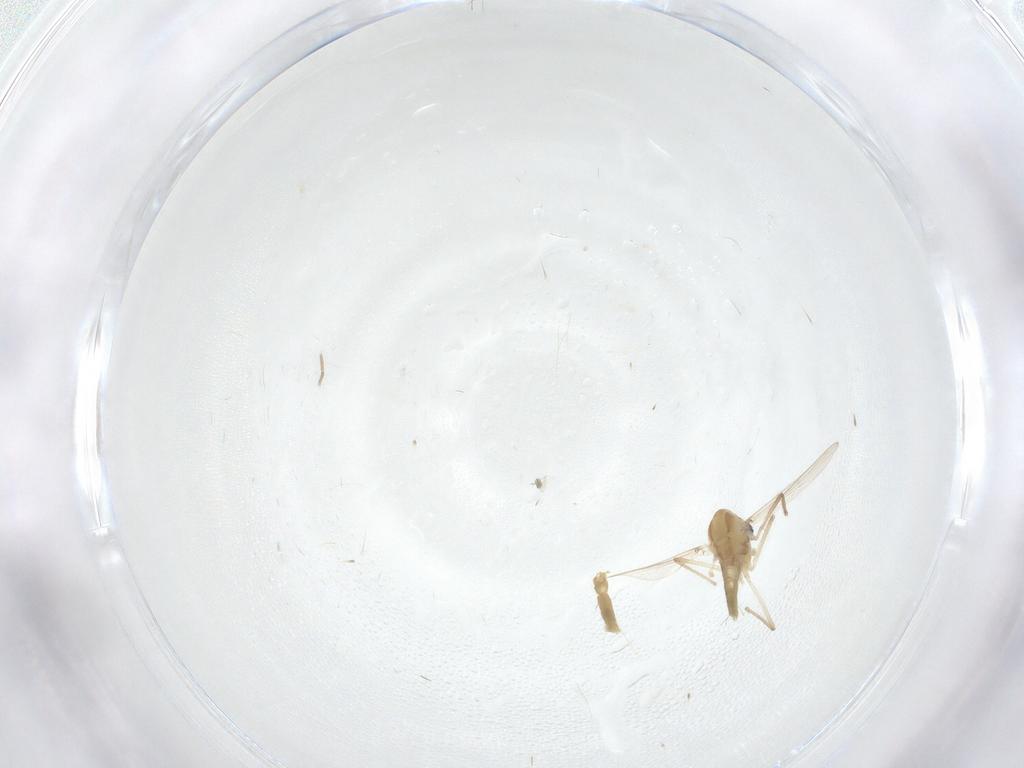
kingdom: Animalia
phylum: Arthropoda
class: Insecta
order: Diptera
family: Chironomidae
